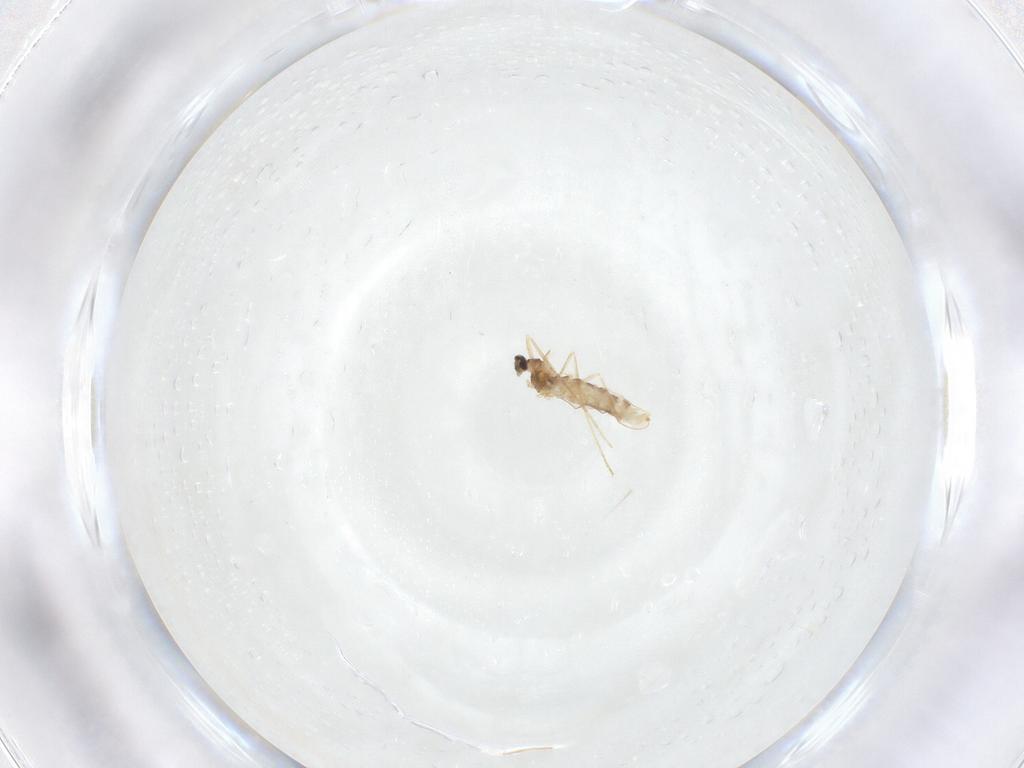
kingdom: Animalia
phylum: Arthropoda
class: Insecta
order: Diptera
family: Cecidomyiidae
